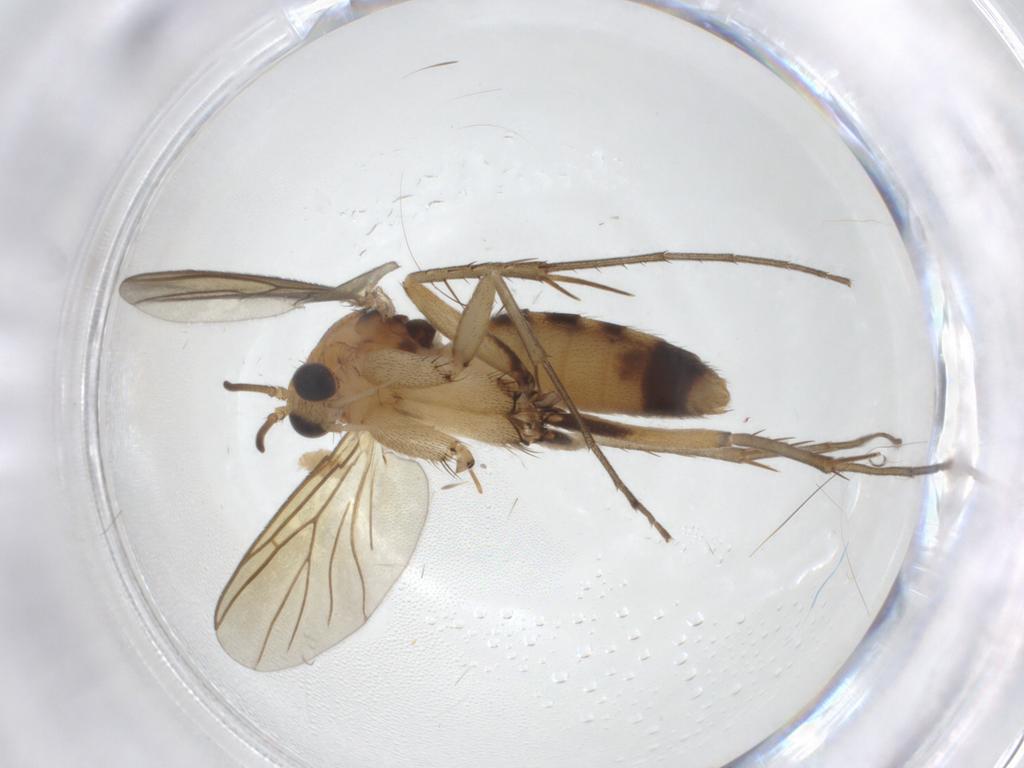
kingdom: Animalia
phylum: Arthropoda
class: Insecta
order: Diptera
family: Mycetophilidae
